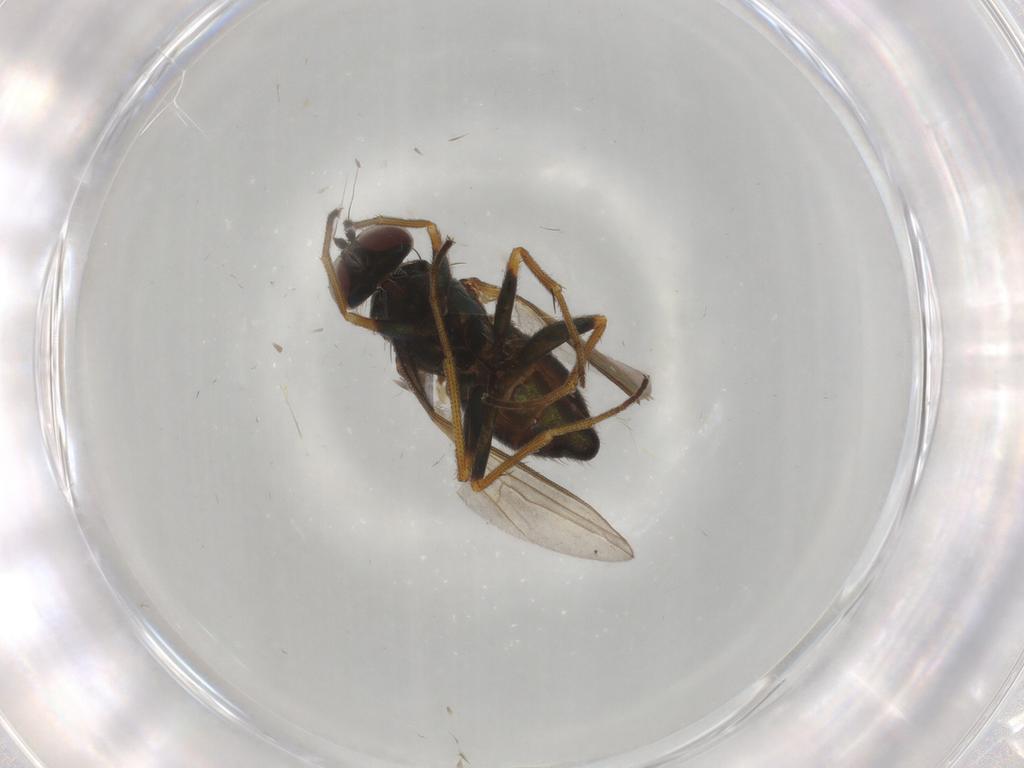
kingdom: Animalia
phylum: Arthropoda
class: Insecta
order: Diptera
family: Dolichopodidae
